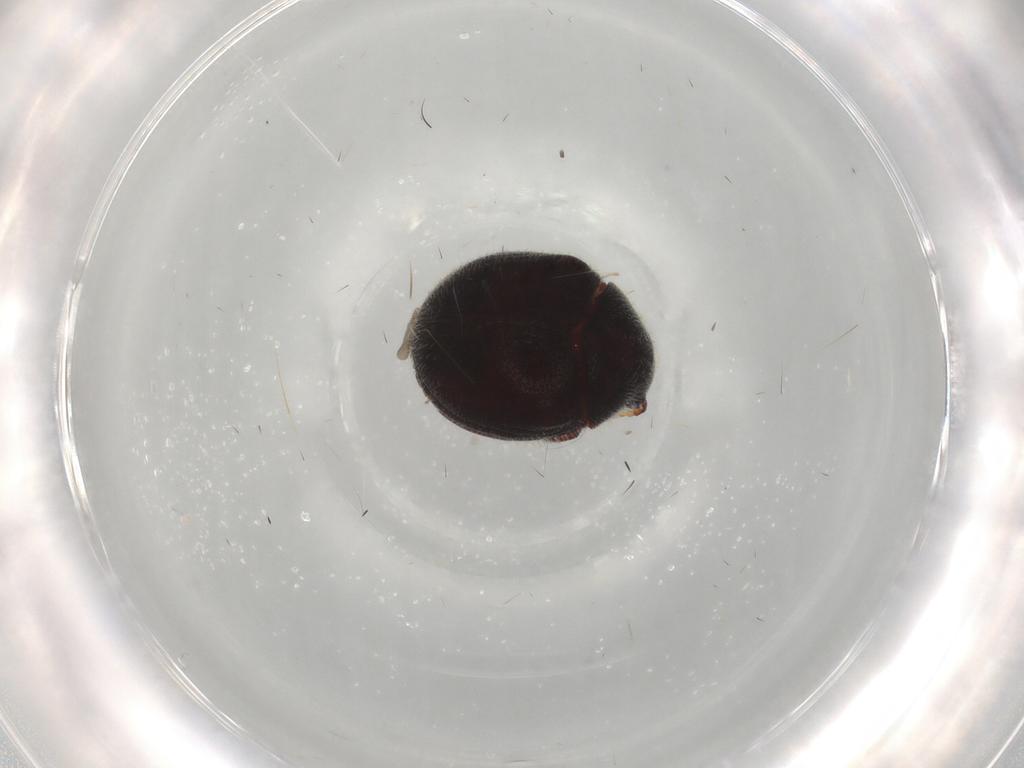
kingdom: Animalia
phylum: Arthropoda
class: Insecta
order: Coleoptera
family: Ptinidae
